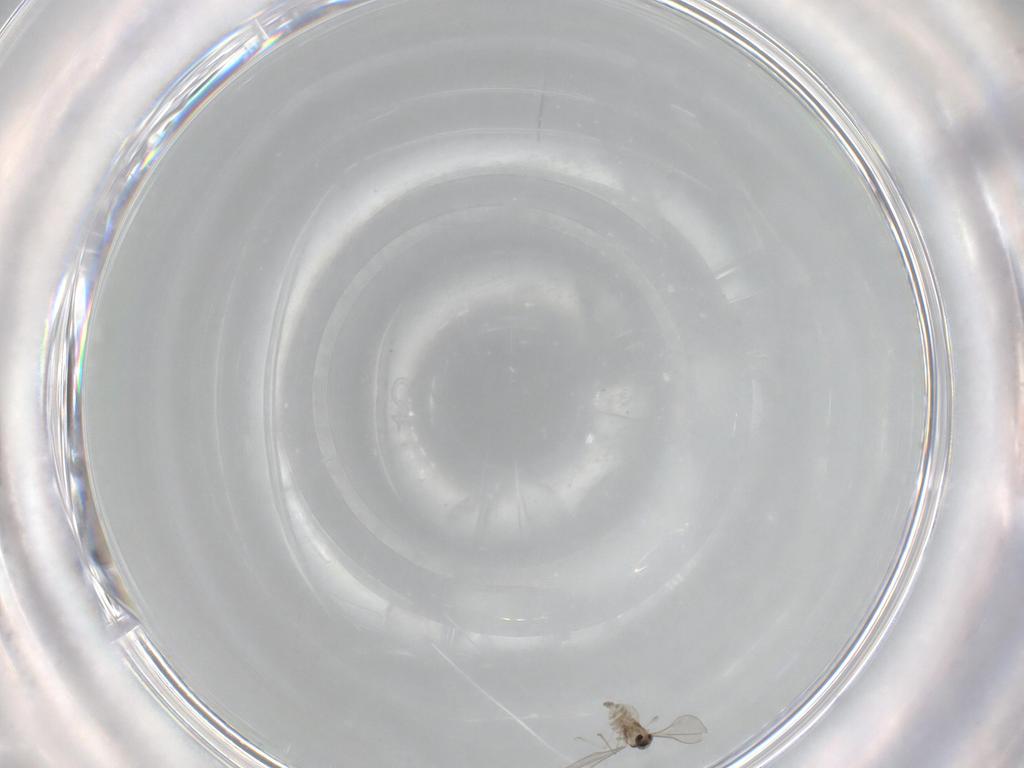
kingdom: Animalia
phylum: Arthropoda
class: Insecta
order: Diptera
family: Cecidomyiidae
